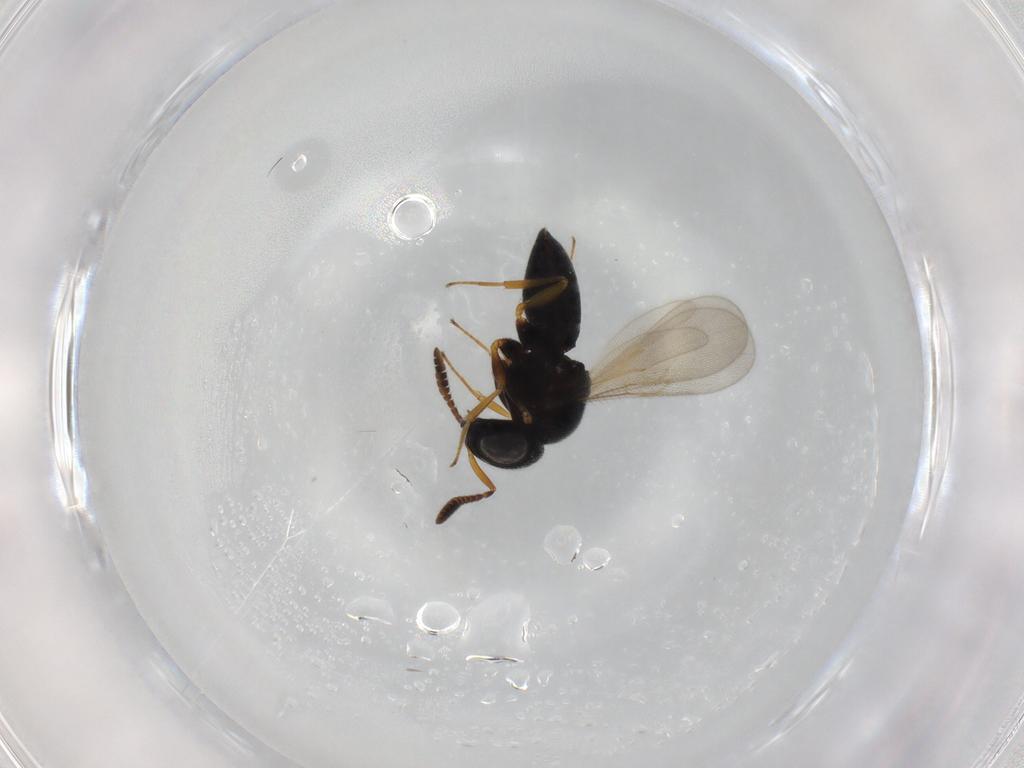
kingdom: Animalia
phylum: Arthropoda
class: Insecta
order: Hymenoptera
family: Scelionidae
